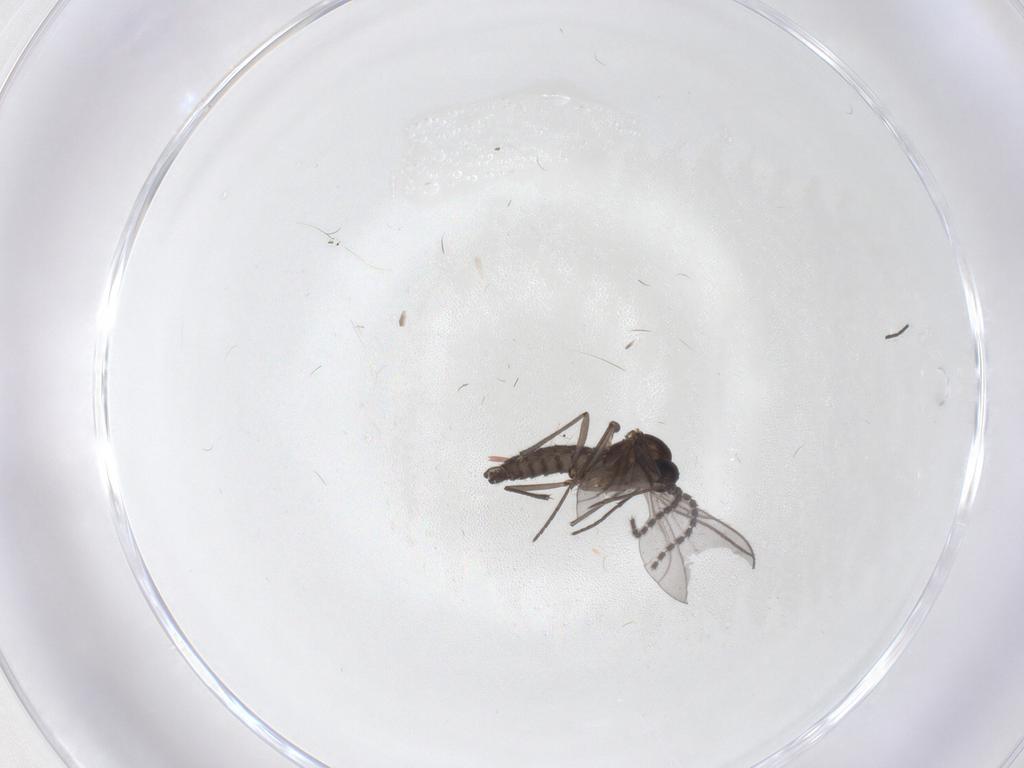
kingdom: Animalia
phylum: Arthropoda
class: Insecta
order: Diptera
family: Sciaridae
